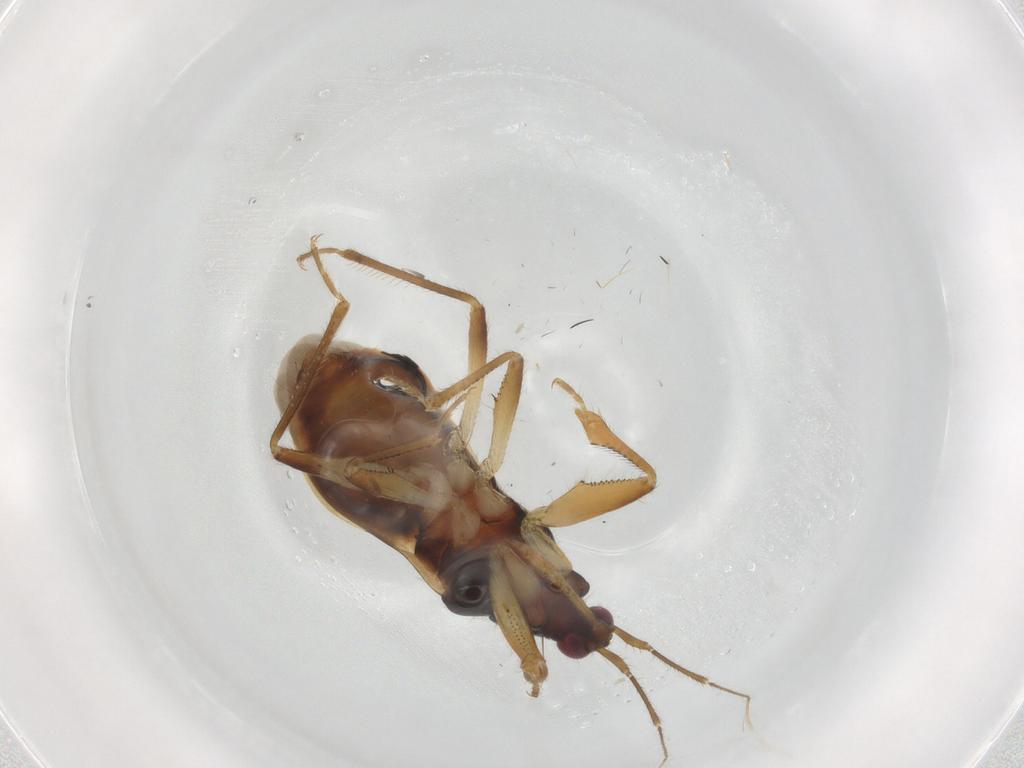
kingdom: Animalia
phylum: Arthropoda
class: Insecta
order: Hemiptera
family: Nabidae
